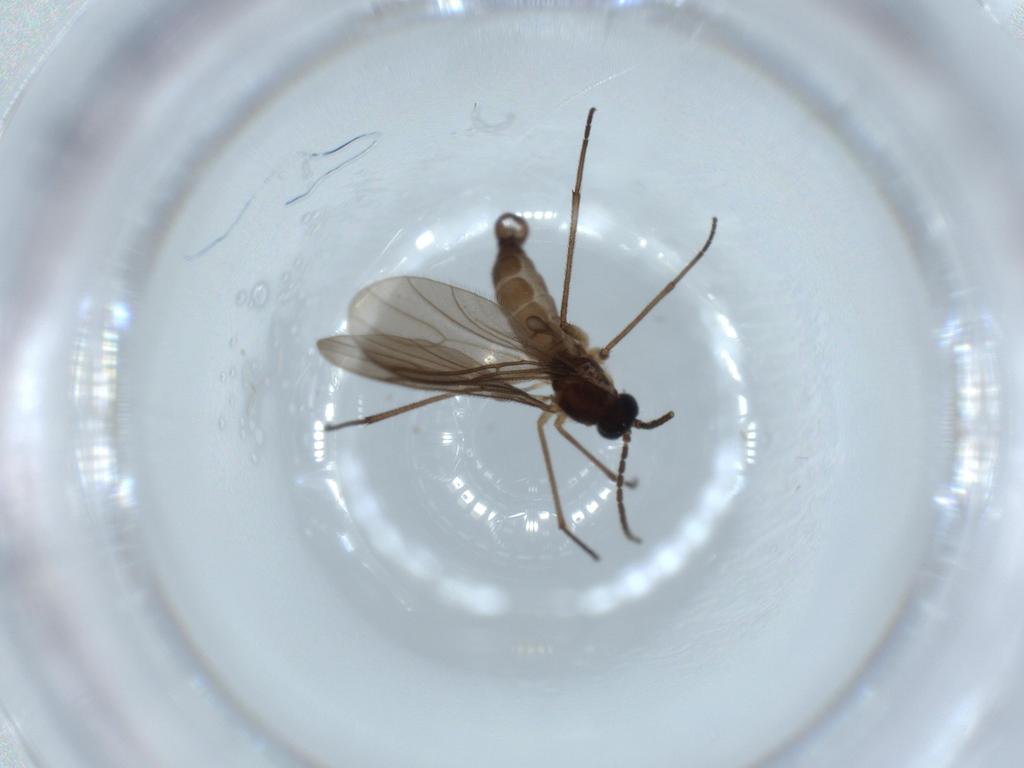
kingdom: Animalia
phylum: Arthropoda
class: Insecta
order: Diptera
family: Sciaridae
